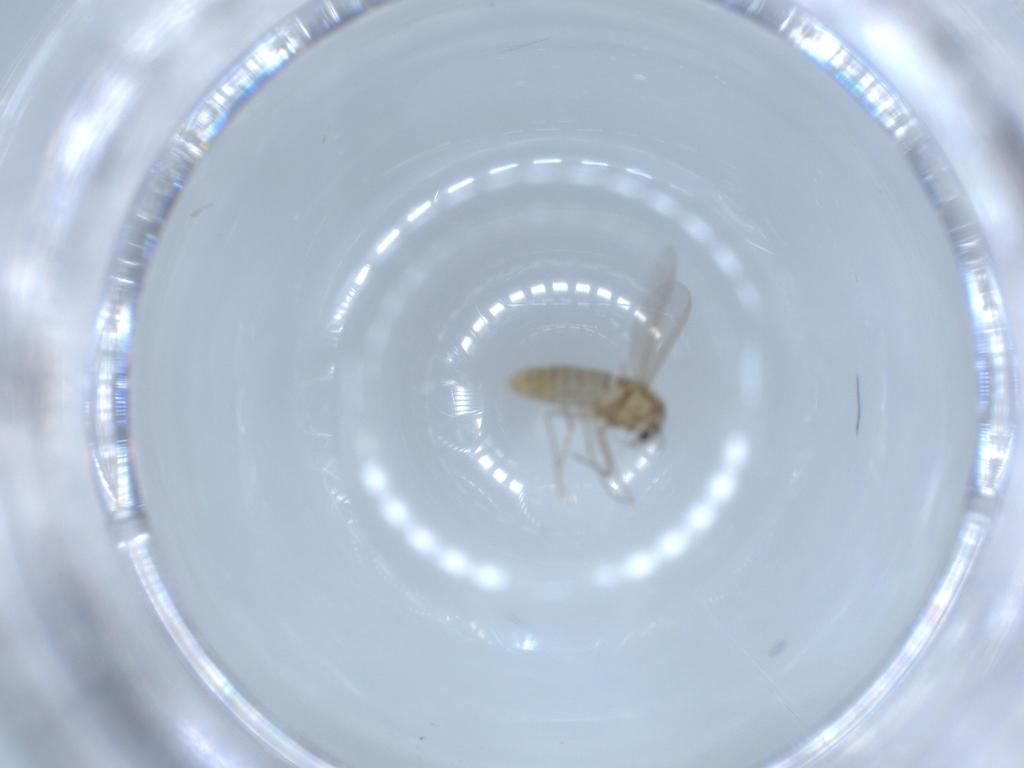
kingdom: Animalia
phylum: Arthropoda
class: Insecta
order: Diptera
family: Chironomidae
